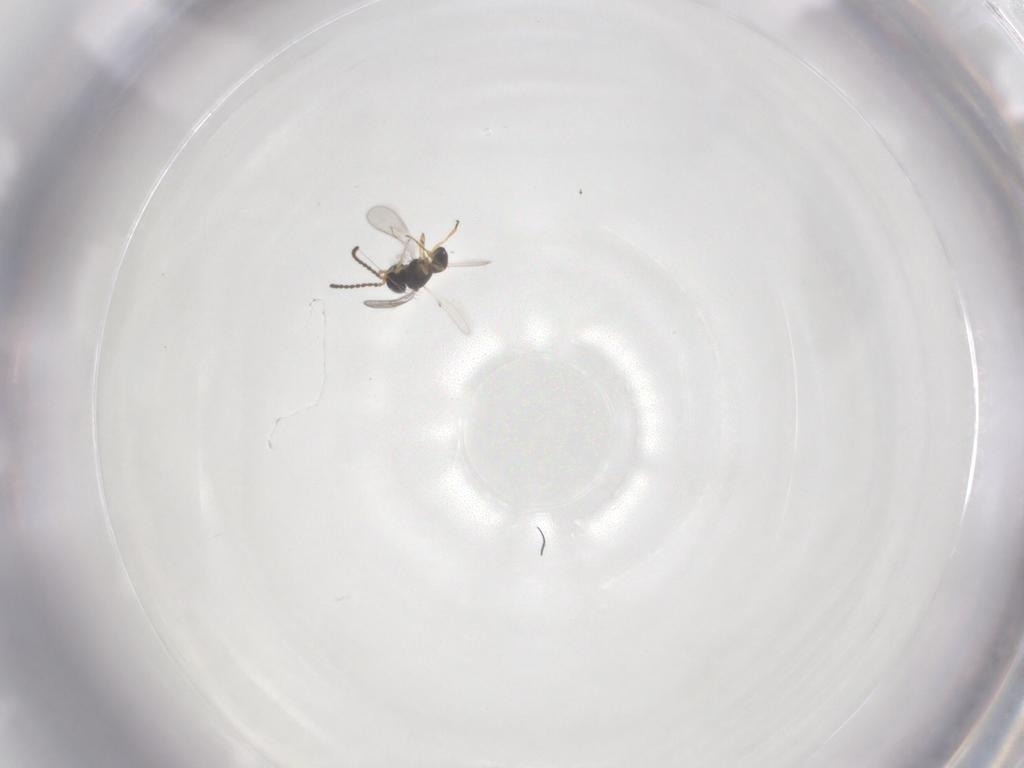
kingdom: Animalia
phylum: Arthropoda
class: Insecta
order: Hymenoptera
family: Scelionidae
